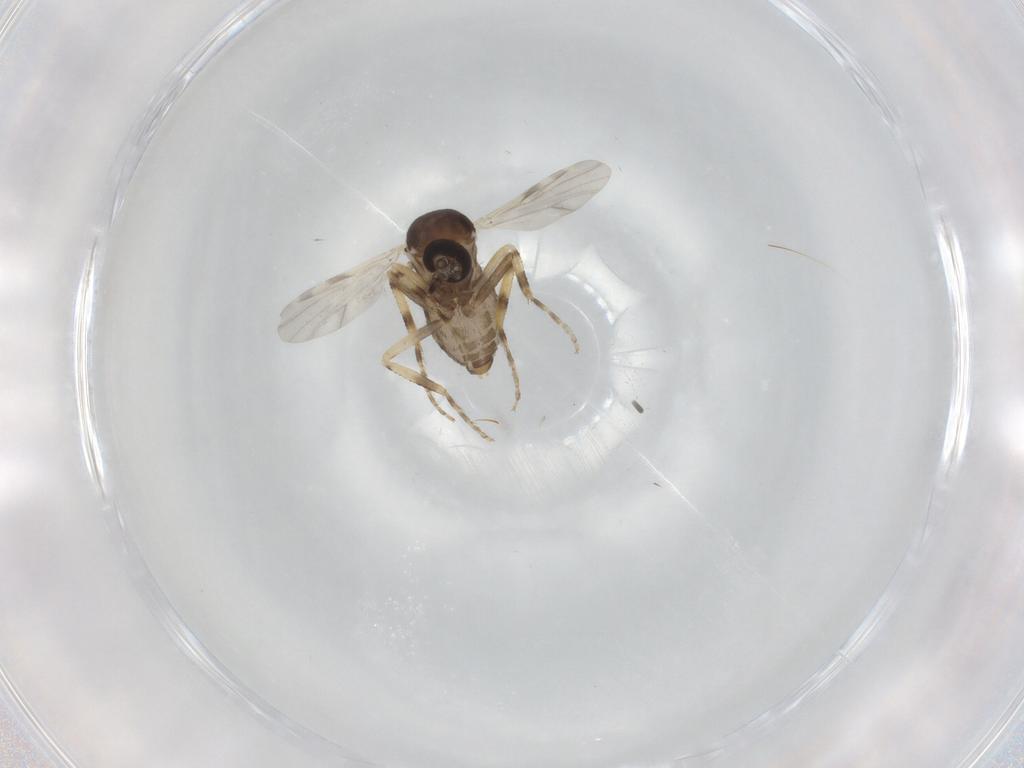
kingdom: Animalia
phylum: Arthropoda
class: Insecta
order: Diptera
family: Ceratopogonidae
